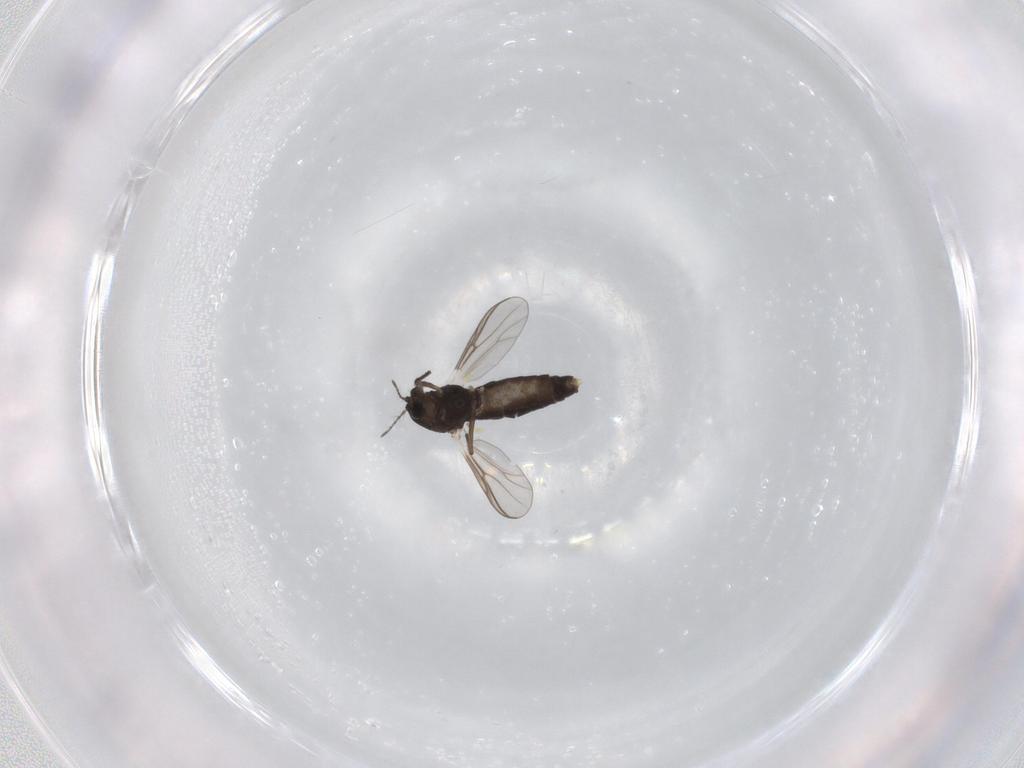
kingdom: Animalia
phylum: Arthropoda
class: Insecta
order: Diptera
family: Chironomidae
